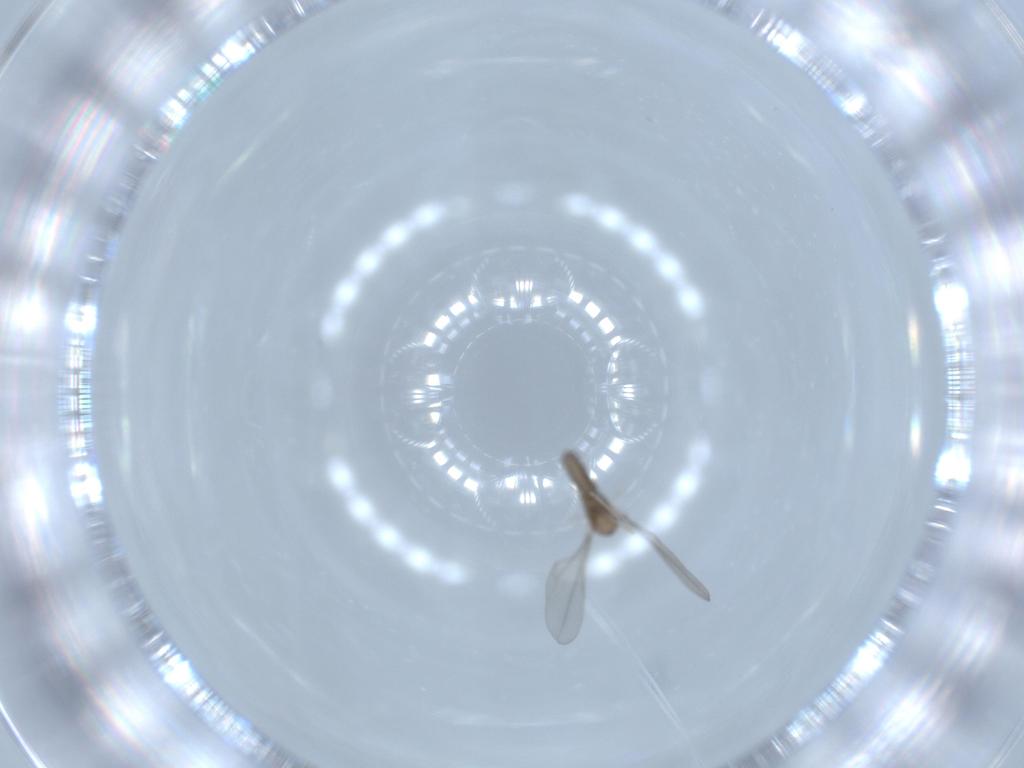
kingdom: Animalia
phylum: Arthropoda
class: Insecta
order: Diptera
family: Cecidomyiidae
